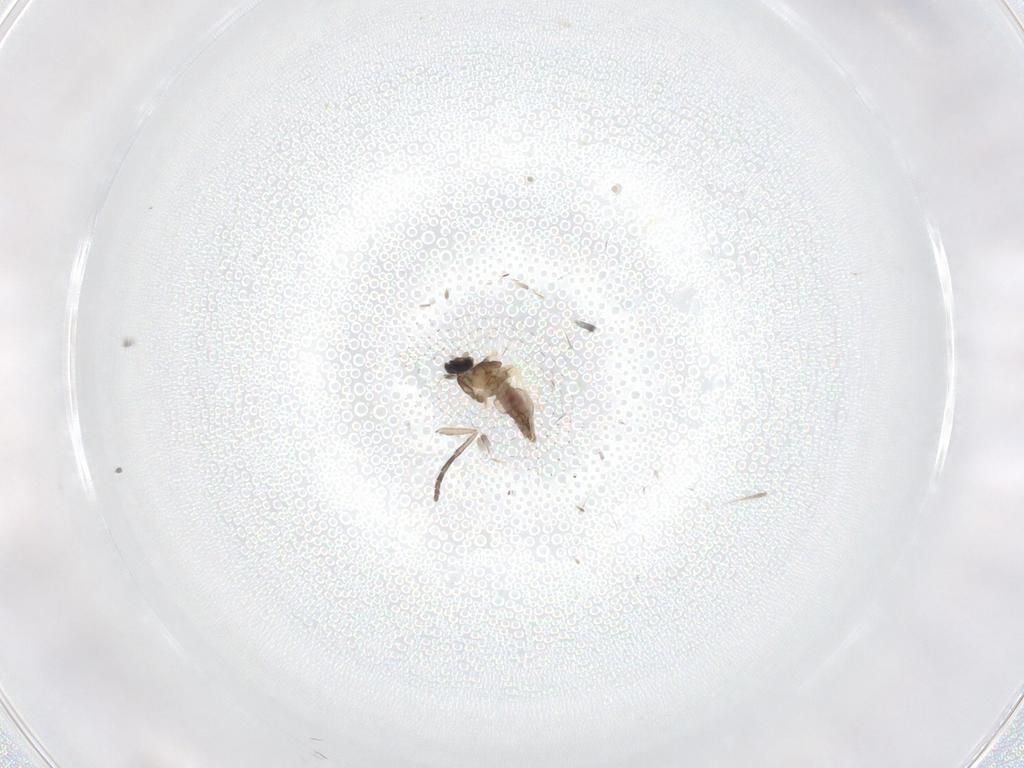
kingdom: Animalia
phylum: Arthropoda
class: Insecta
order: Diptera
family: Cecidomyiidae
